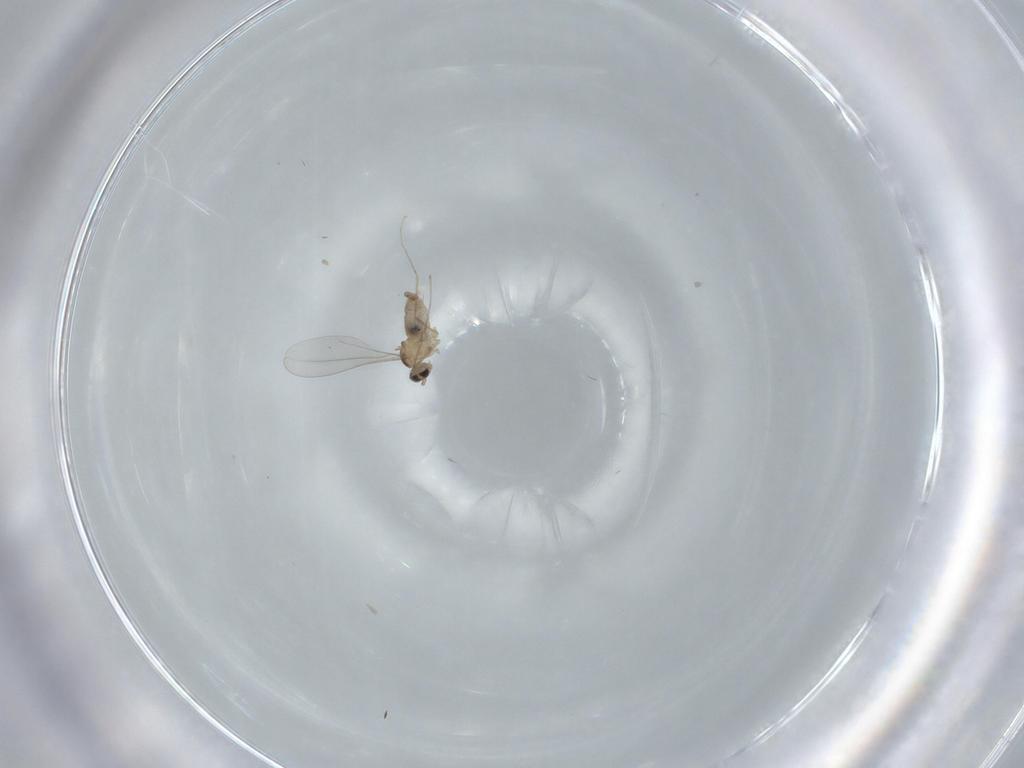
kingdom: Animalia
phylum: Arthropoda
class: Insecta
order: Diptera
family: Cecidomyiidae
